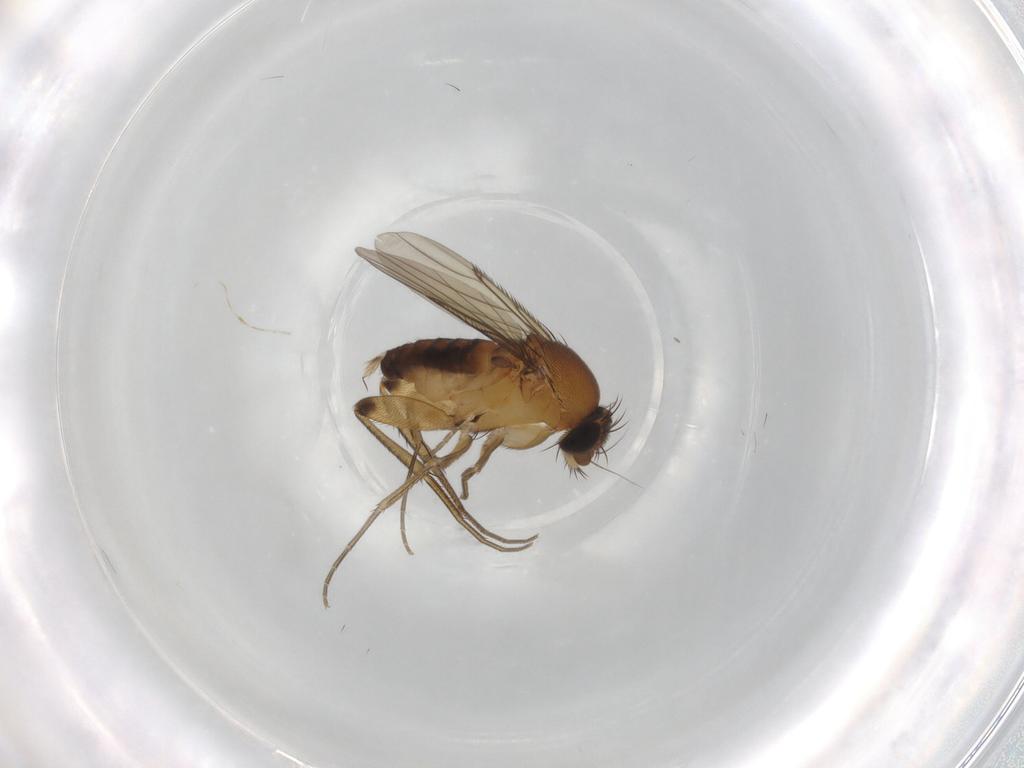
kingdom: Animalia
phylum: Arthropoda
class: Insecta
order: Diptera
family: Phoridae
